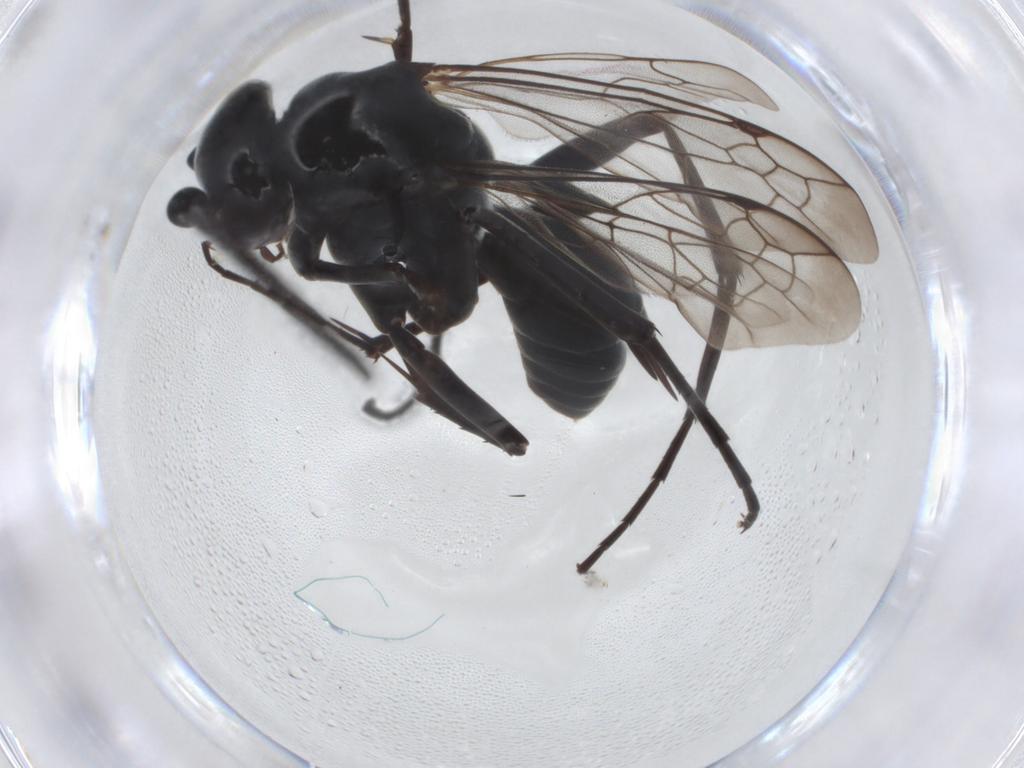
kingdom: Animalia
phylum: Arthropoda
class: Insecta
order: Hymenoptera
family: Pompilidae
